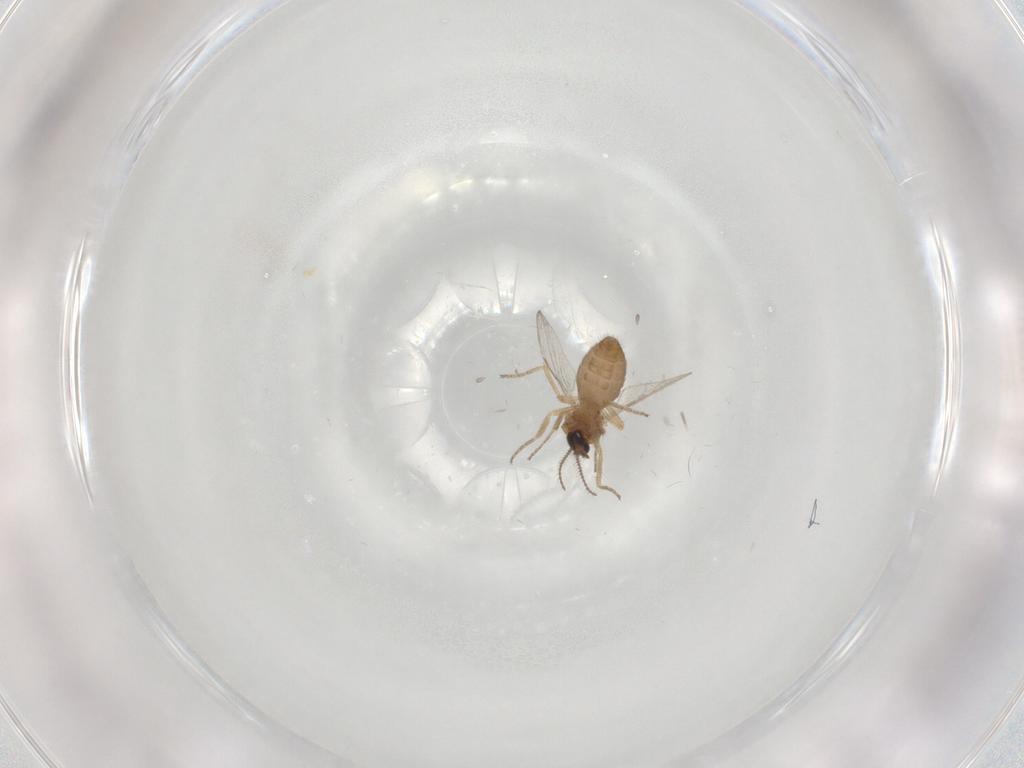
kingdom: Animalia
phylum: Arthropoda
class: Insecta
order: Diptera
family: Ceratopogonidae
